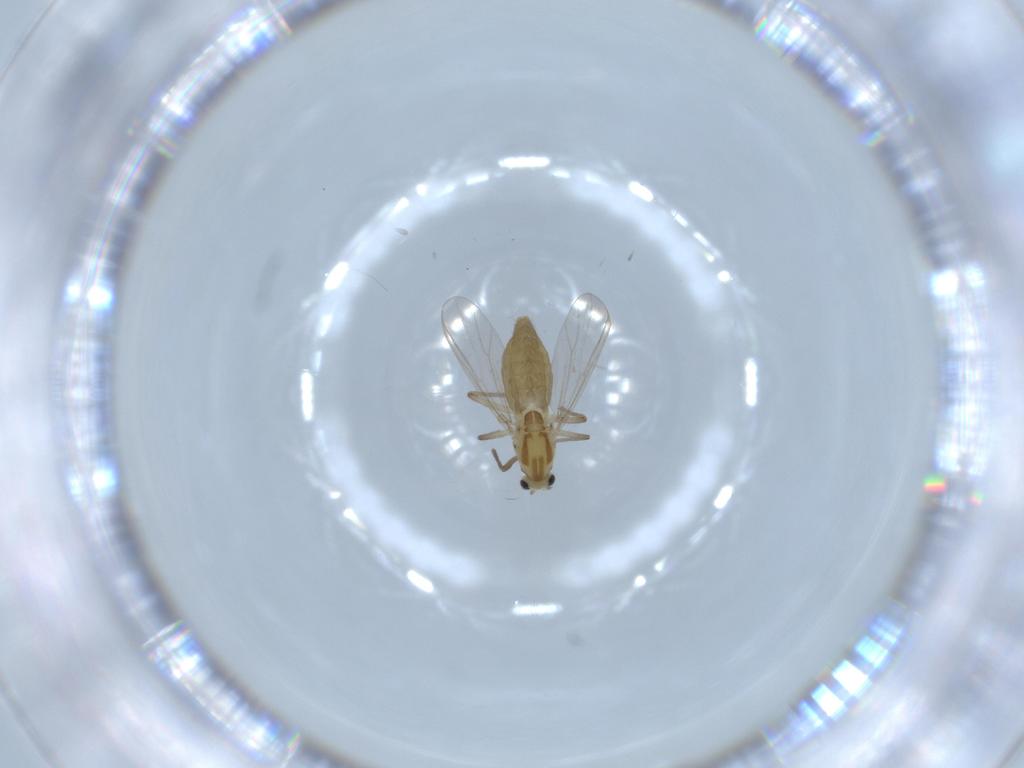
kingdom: Animalia
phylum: Arthropoda
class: Insecta
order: Diptera
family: Chironomidae
